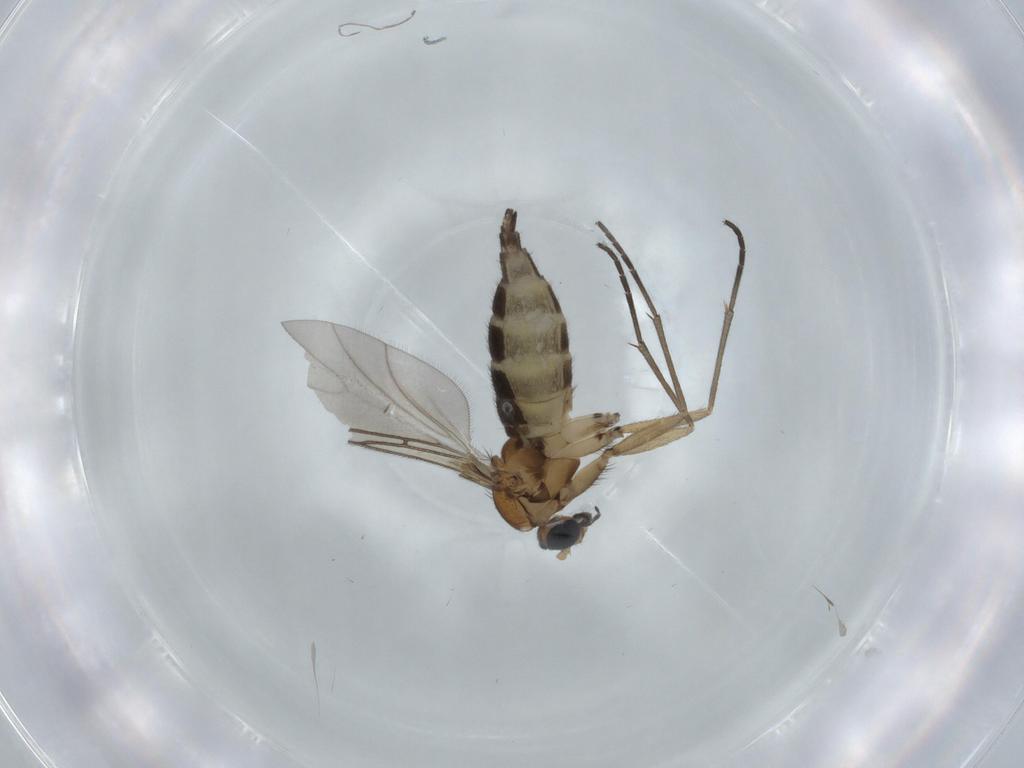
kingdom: Animalia
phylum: Arthropoda
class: Insecta
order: Diptera
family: Sciaridae
